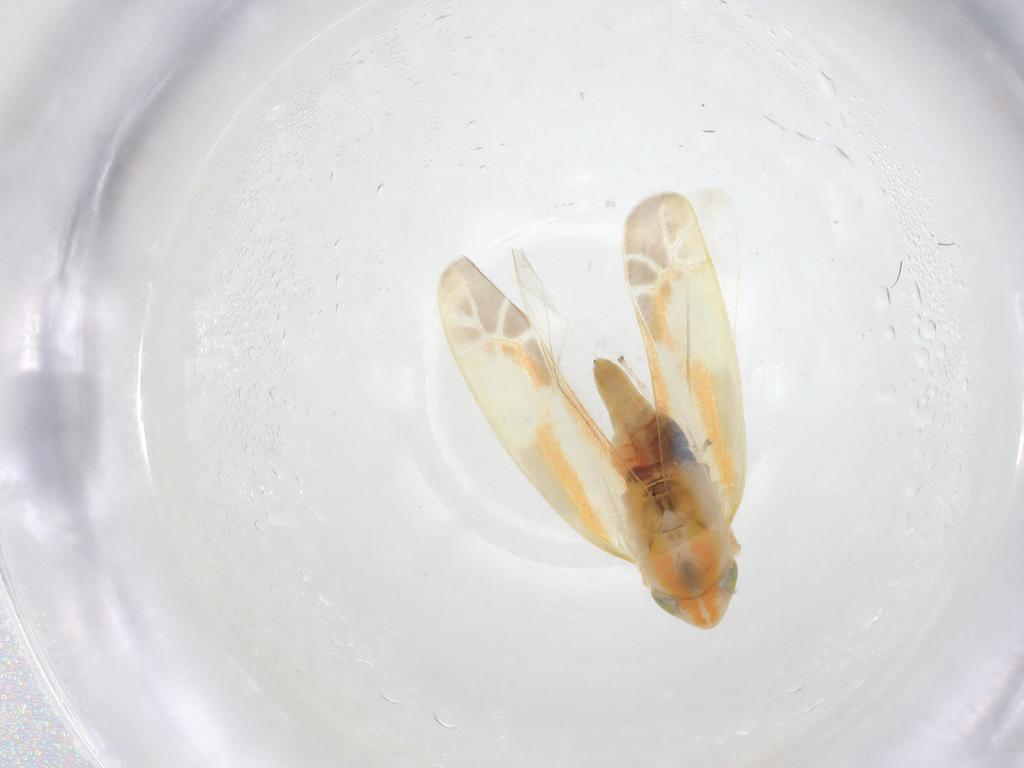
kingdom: Animalia
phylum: Arthropoda
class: Insecta
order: Hemiptera
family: Cicadellidae
